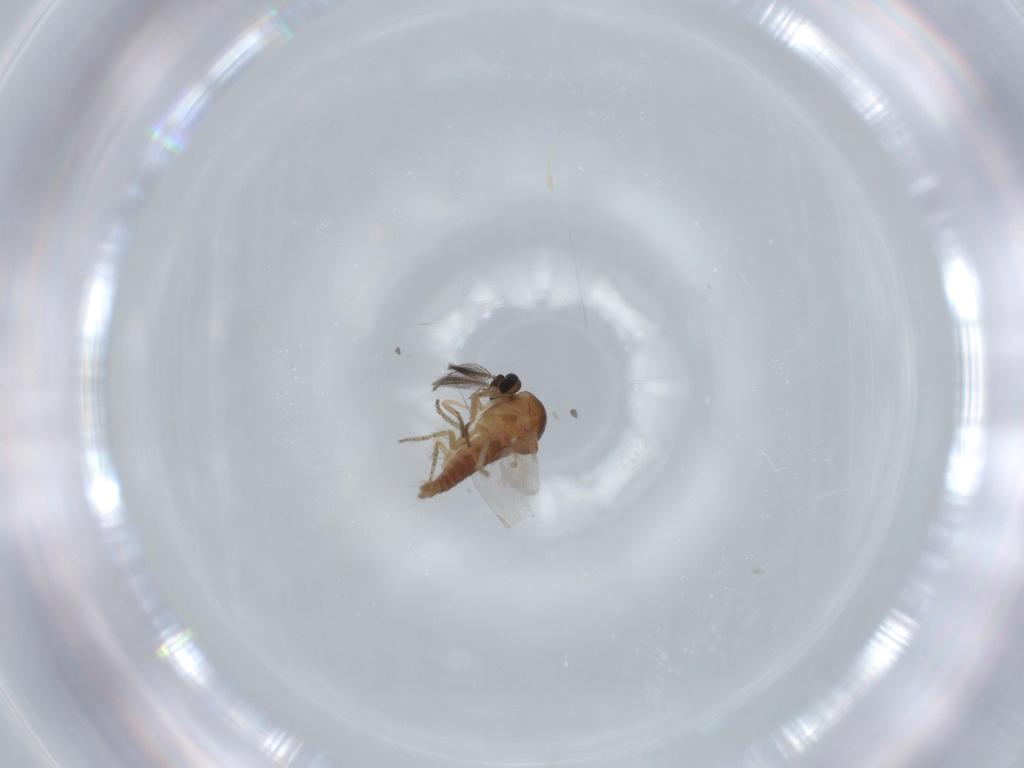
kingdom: Animalia
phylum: Arthropoda
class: Insecta
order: Diptera
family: Ceratopogonidae
